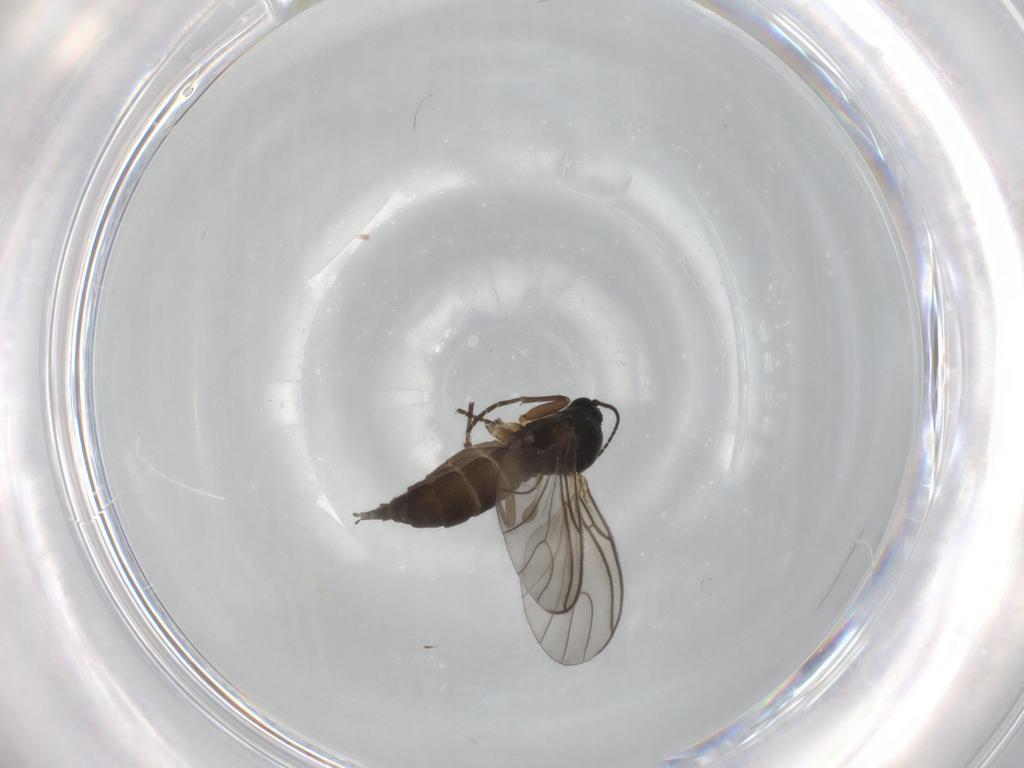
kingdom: Animalia
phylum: Arthropoda
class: Insecta
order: Diptera
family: Sciaridae
